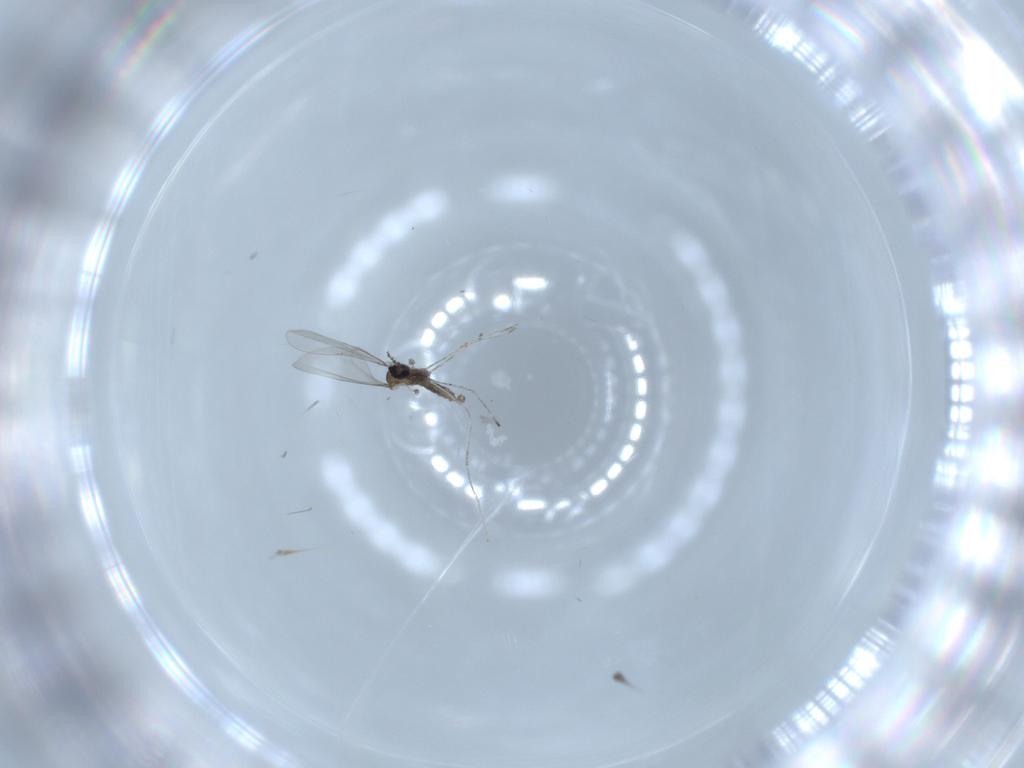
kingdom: Animalia
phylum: Arthropoda
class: Insecta
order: Diptera
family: Cecidomyiidae
